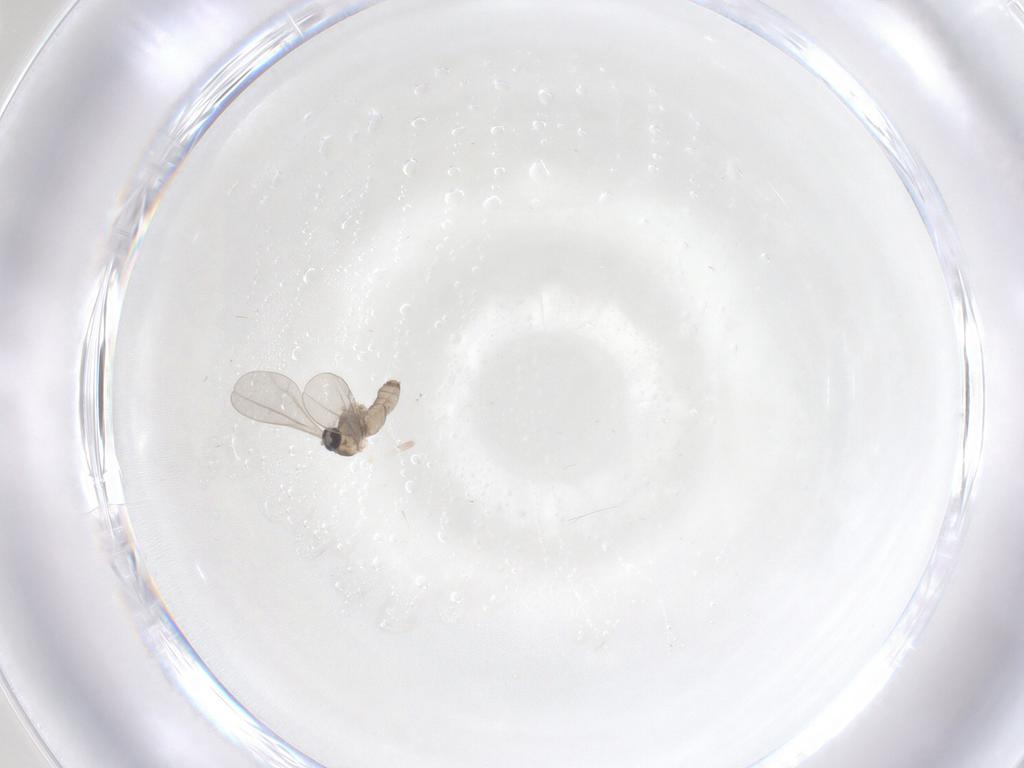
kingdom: Animalia
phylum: Arthropoda
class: Insecta
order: Diptera
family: Cecidomyiidae
